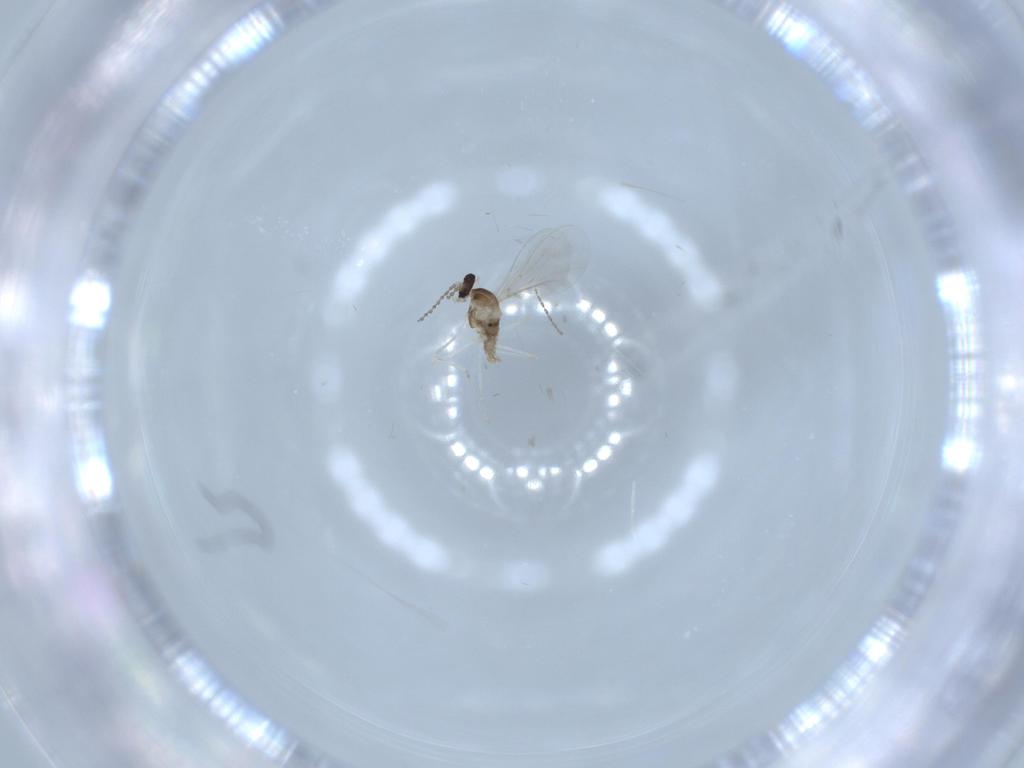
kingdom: Animalia
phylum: Arthropoda
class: Insecta
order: Diptera
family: Cecidomyiidae
